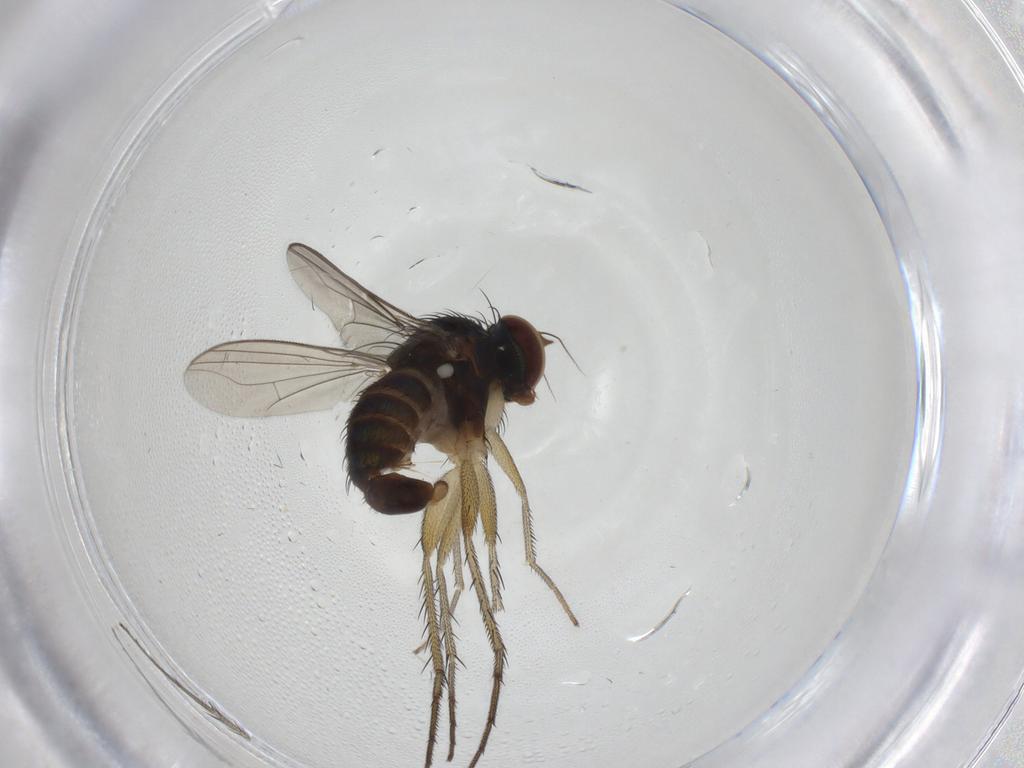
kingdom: Animalia
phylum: Arthropoda
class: Insecta
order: Diptera
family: Dolichopodidae
